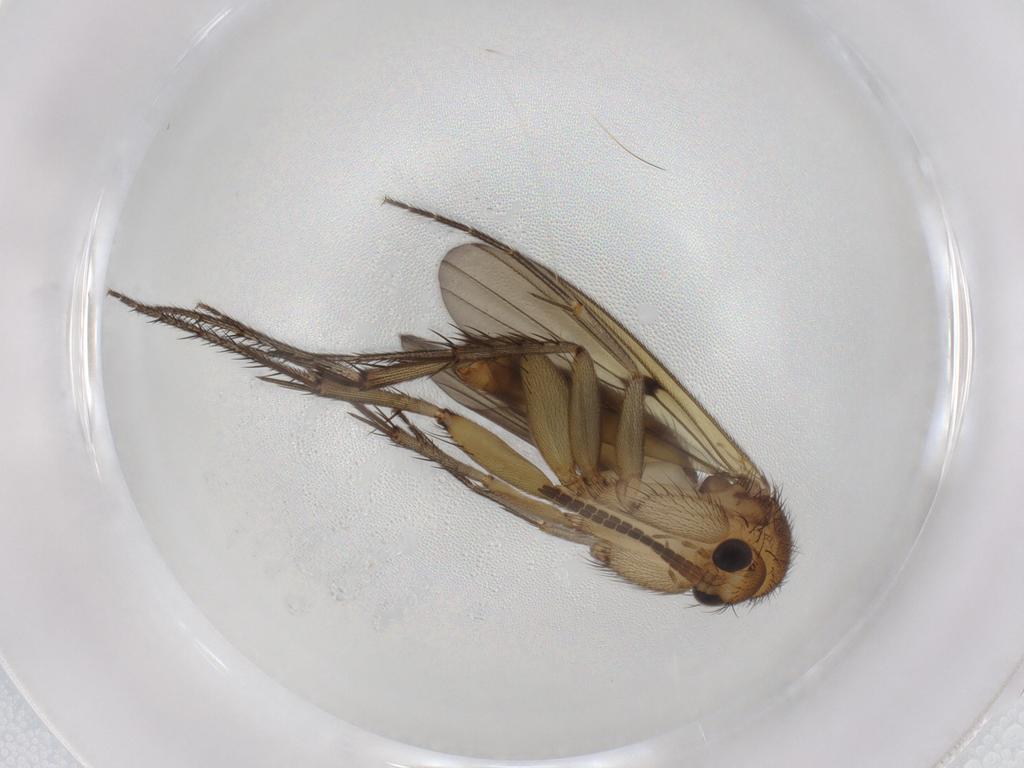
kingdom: Animalia
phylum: Arthropoda
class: Insecta
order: Diptera
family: Mycetophilidae
